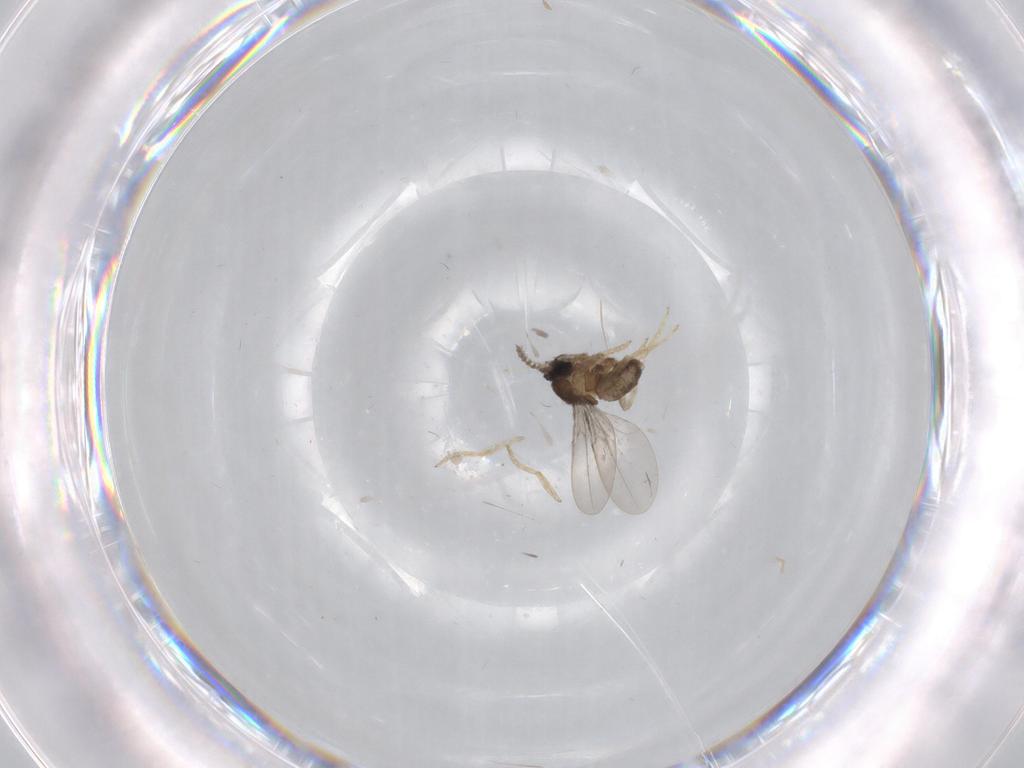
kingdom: Animalia
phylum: Arthropoda
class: Insecta
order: Diptera
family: Cecidomyiidae
